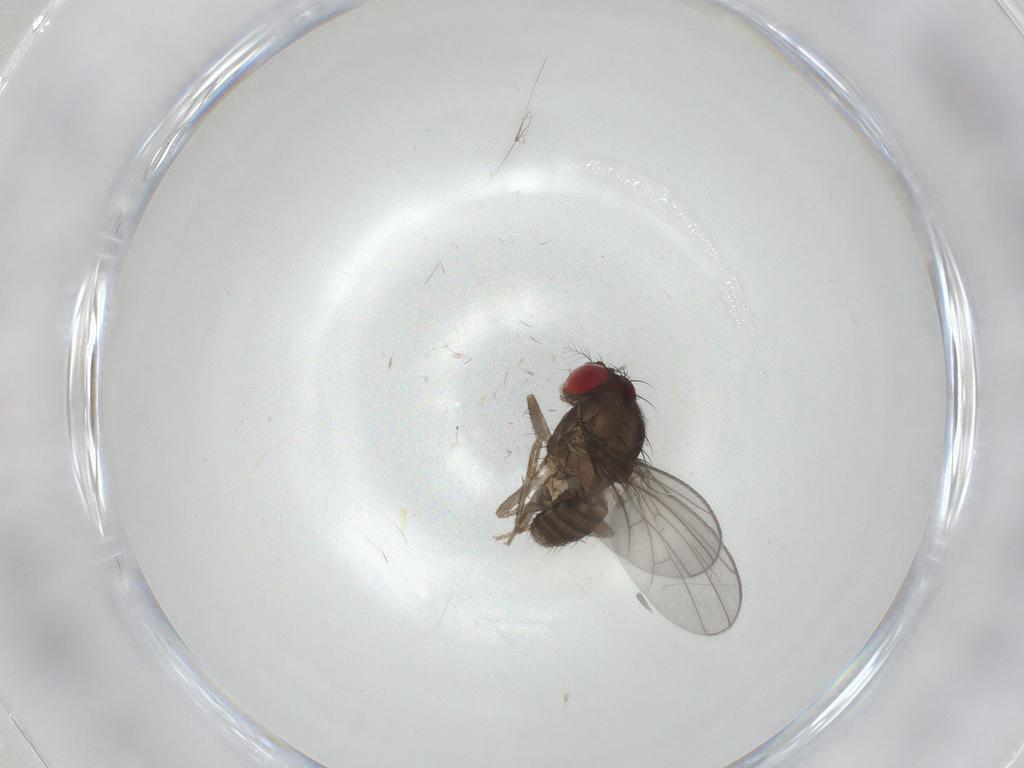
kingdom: Animalia
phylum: Arthropoda
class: Insecta
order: Diptera
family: Drosophilidae
